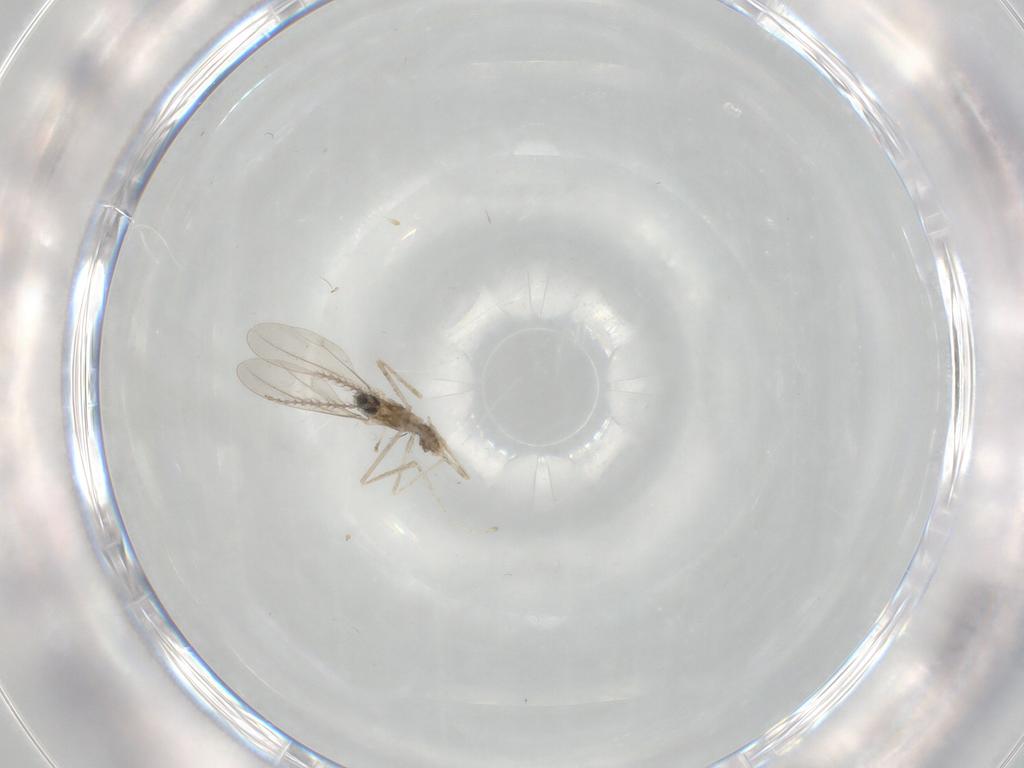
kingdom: Animalia
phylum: Arthropoda
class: Insecta
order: Diptera
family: Cecidomyiidae
